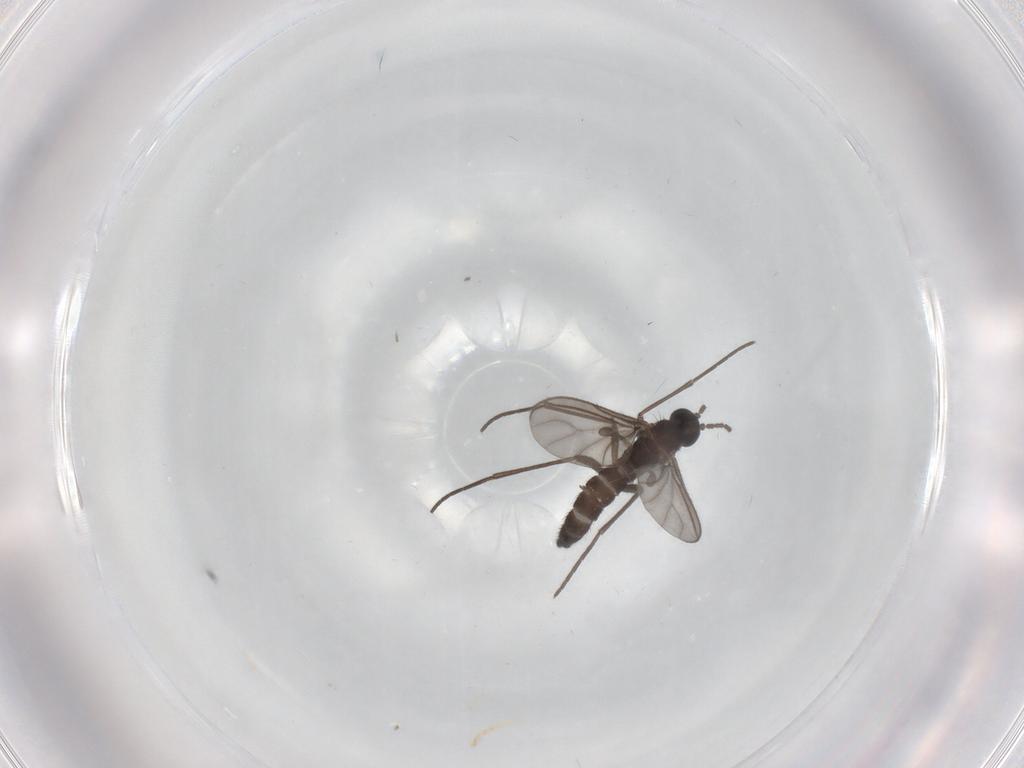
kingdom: Animalia
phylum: Arthropoda
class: Insecta
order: Diptera
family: Sciaridae
